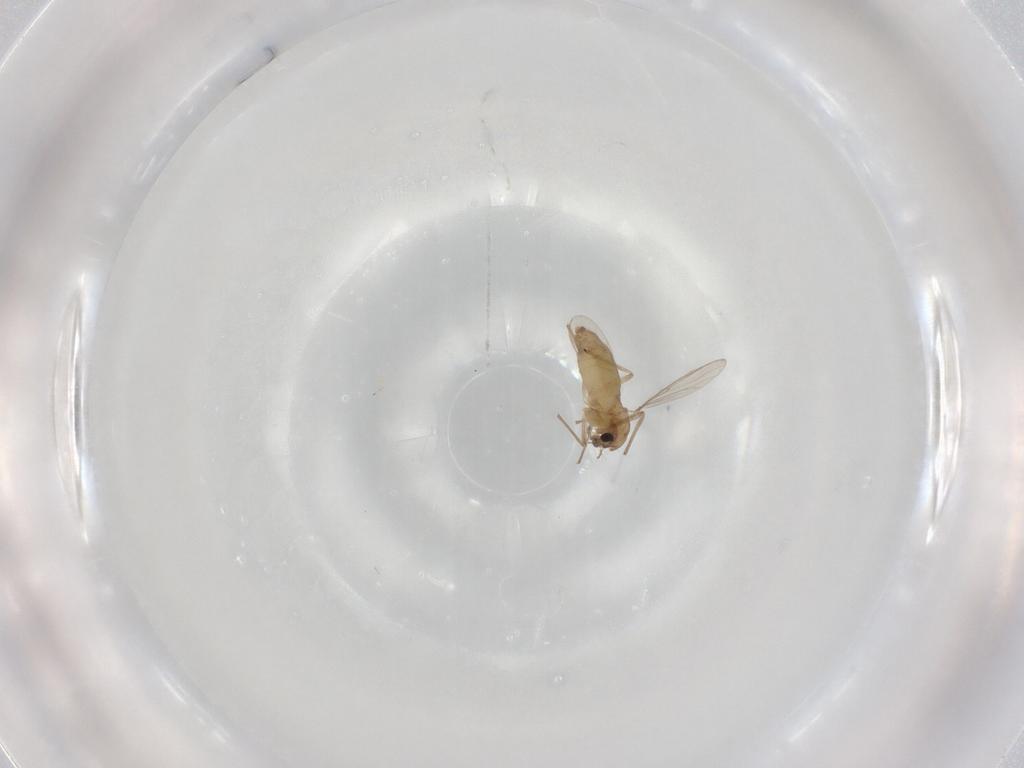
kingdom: Animalia
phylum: Arthropoda
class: Insecta
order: Diptera
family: Chironomidae
